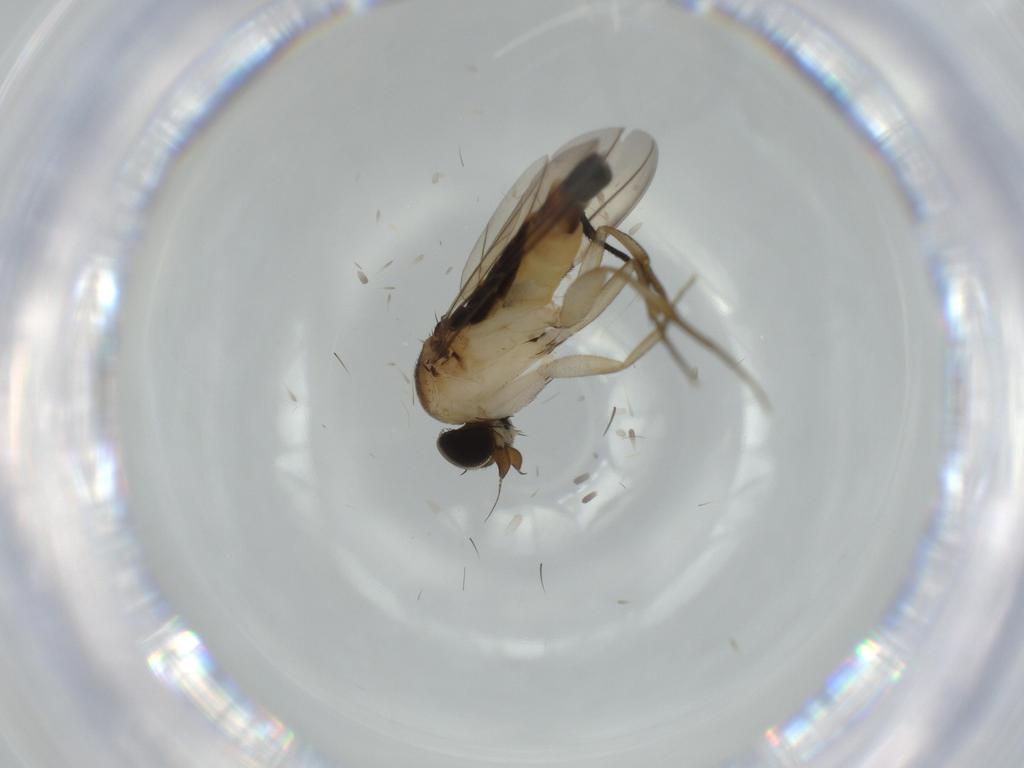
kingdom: Animalia
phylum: Arthropoda
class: Insecta
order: Diptera
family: Phoridae
